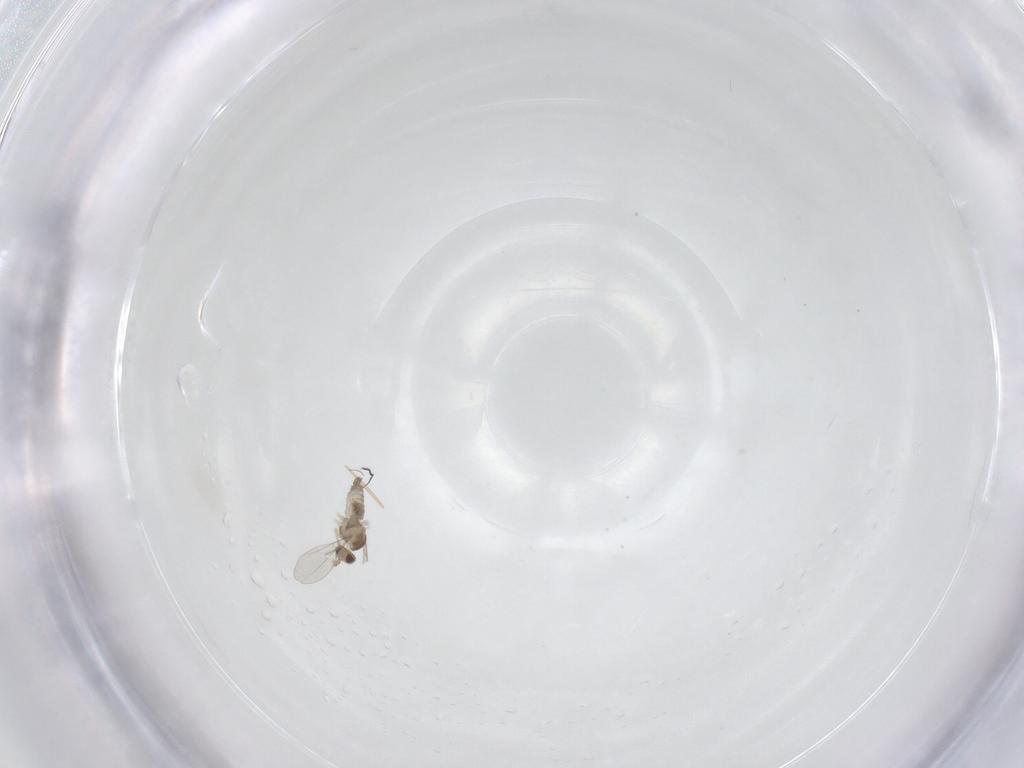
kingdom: Animalia
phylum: Arthropoda
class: Insecta
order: Diptera
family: Cecidomyiidae
